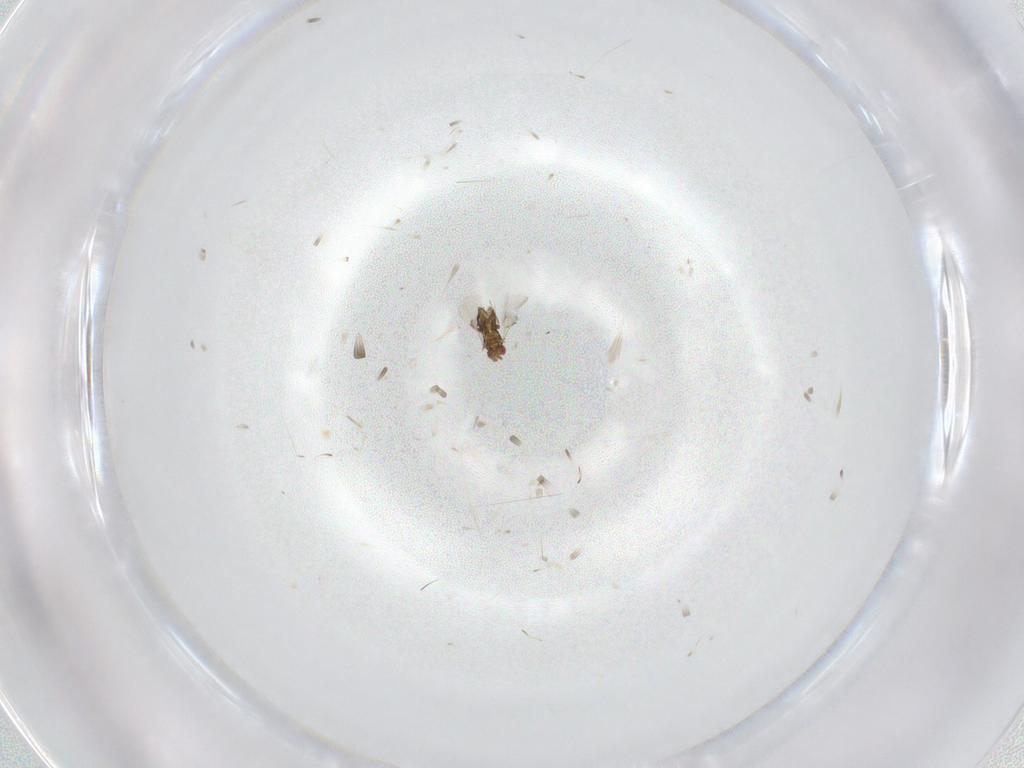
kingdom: Animalia
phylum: Arthropoda
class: Insecta
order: Hymenoptera
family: Trichogrammatidae
